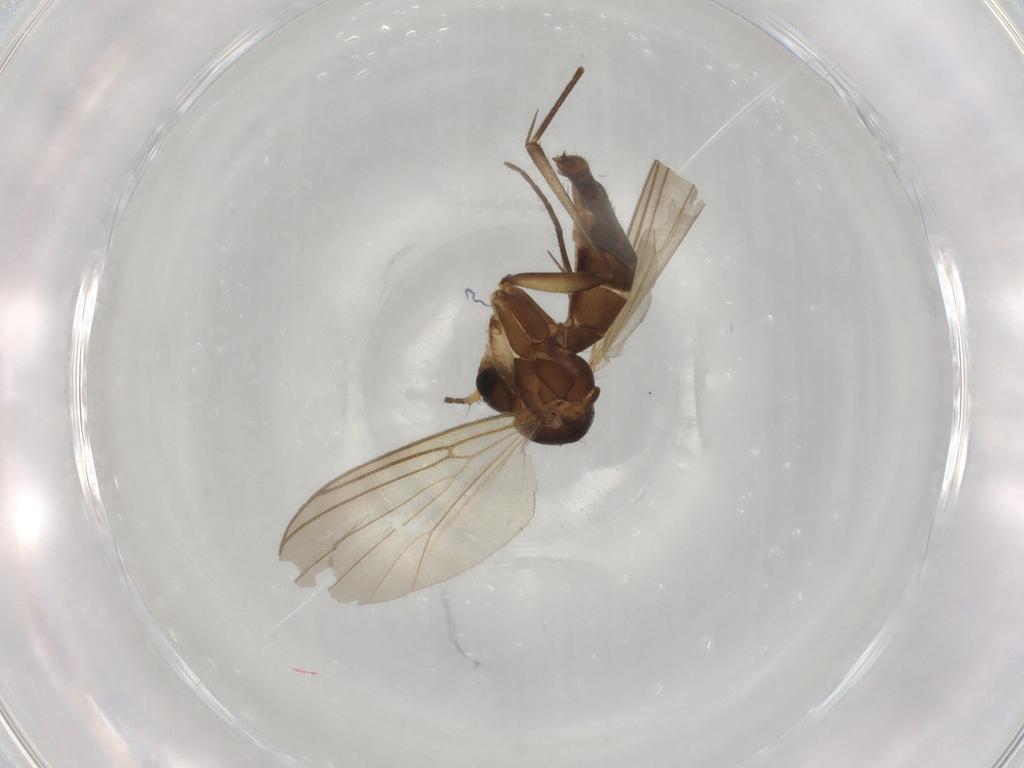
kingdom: Animalia
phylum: Arthropoda
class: Insecta
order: Diptera
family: Mycetophilidae
